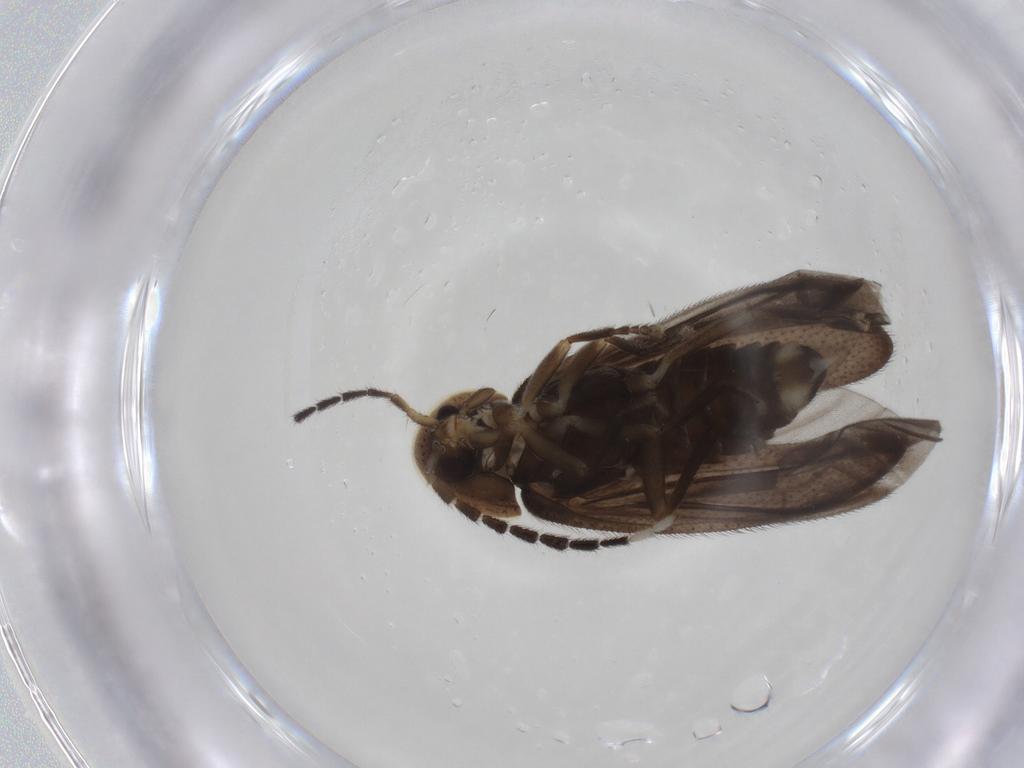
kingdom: Animalia
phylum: Arthropoda
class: Insecta
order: Coleoptera
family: Lampyridae
